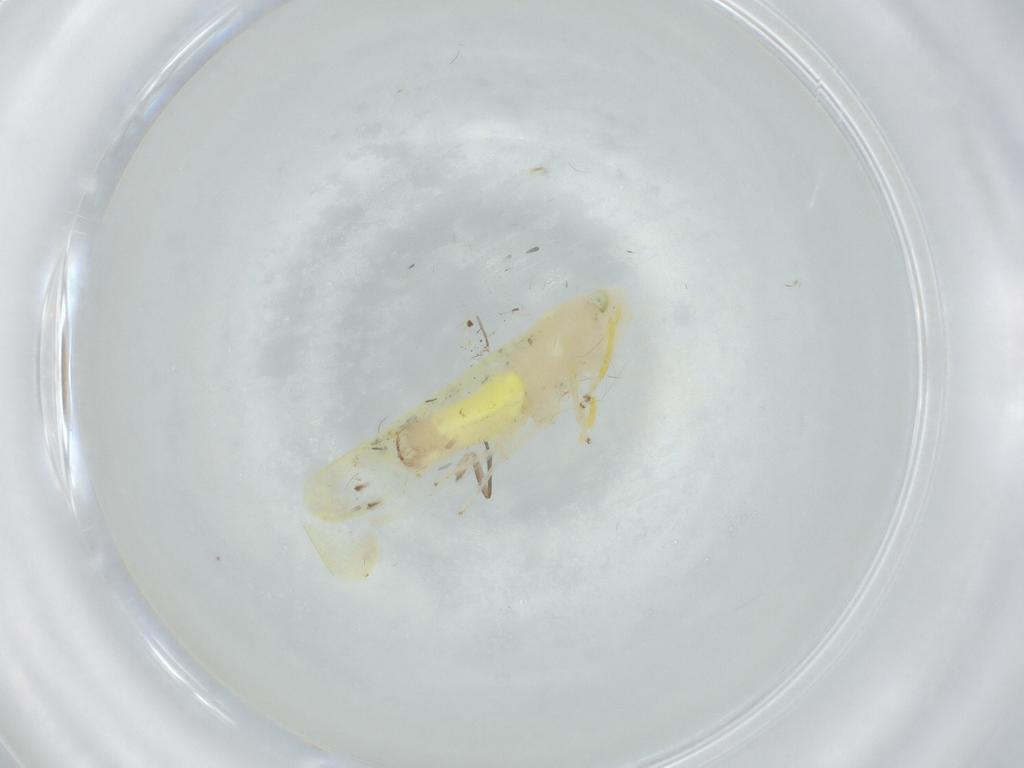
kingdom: Animalia
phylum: Arthropoda
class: Insecta
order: Hemiptera
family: Cicadellidae
